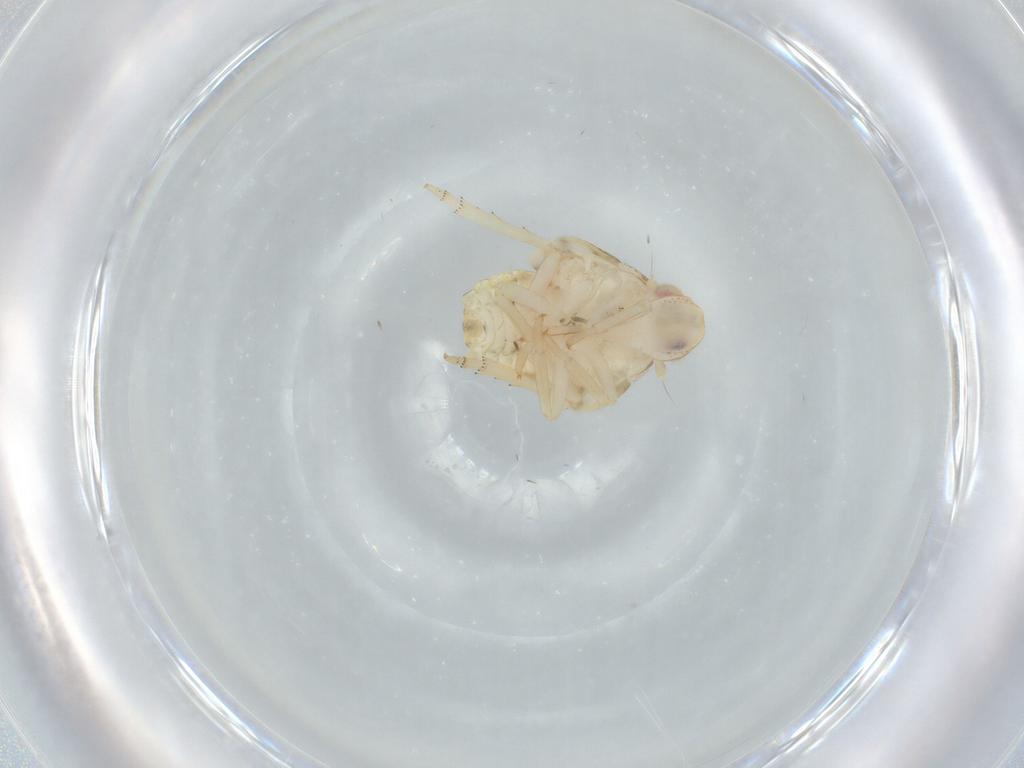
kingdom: Animalia
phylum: Arthropoda
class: Insecta
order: Hemiptera
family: Flatidae
